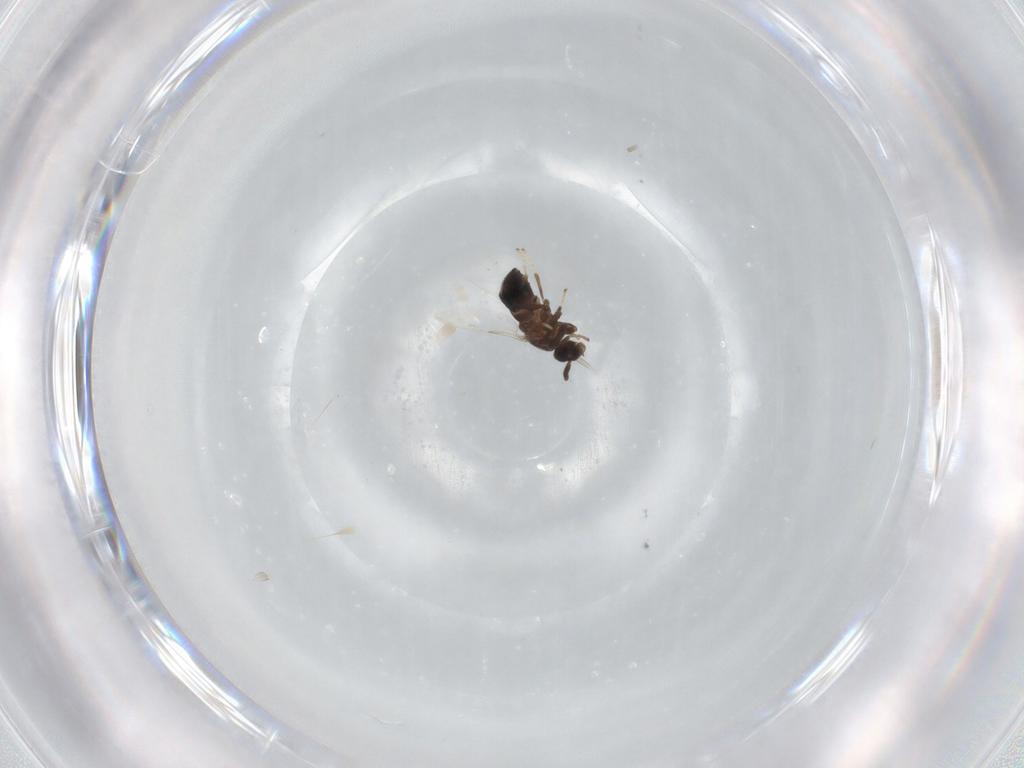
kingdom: Animalia
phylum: Arthropoda
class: Insecta
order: Diptera
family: Scatopsidae
